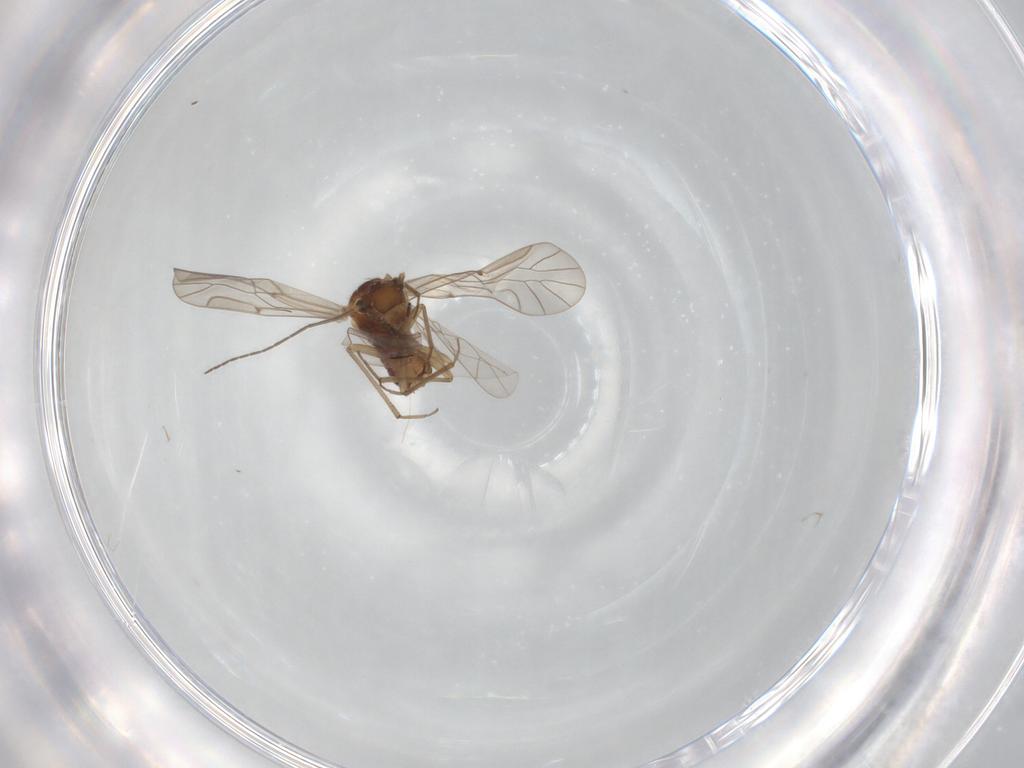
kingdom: Animalia
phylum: Arthropoda
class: Insecta
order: Psocodea
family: Lachesillidae
